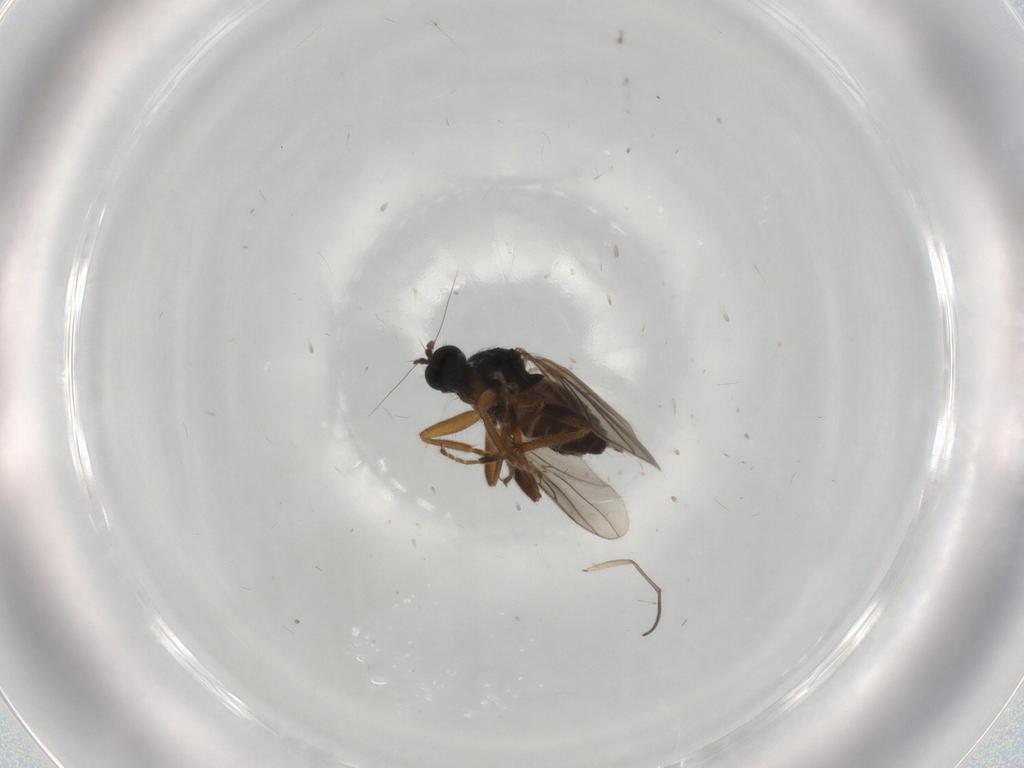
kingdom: Animalia
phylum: Arthropoda
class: Insecta
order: Diptera
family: Hybotidae
